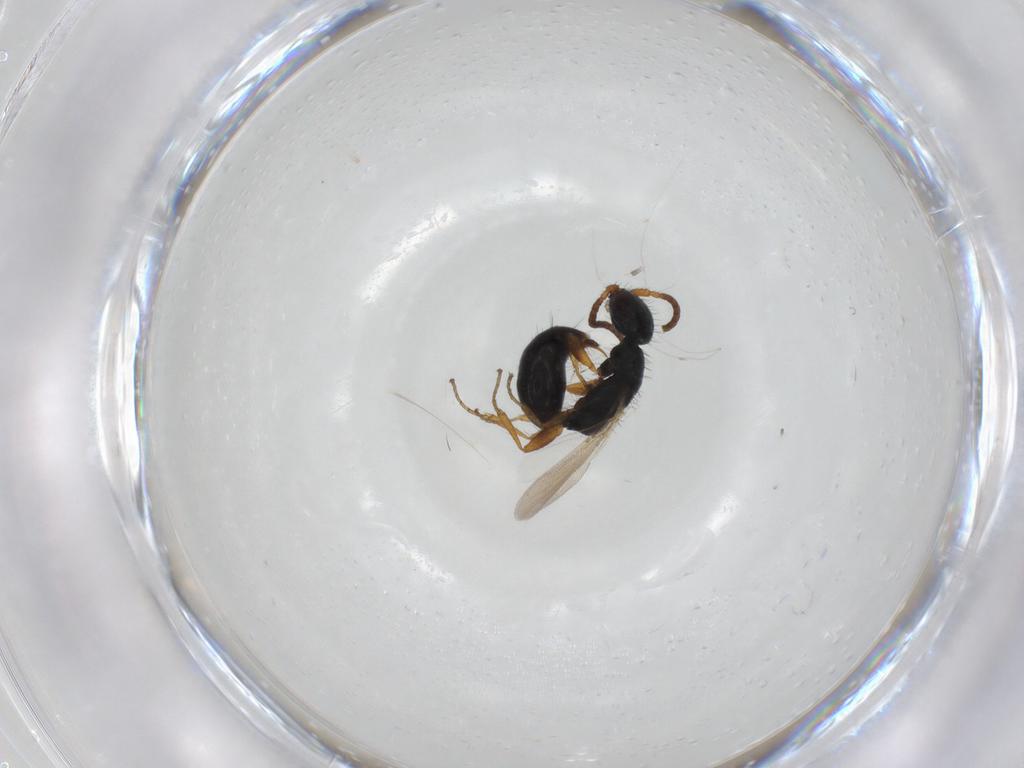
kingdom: Animalia
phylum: Arthropoda
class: Insecta
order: Hymenoptera
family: Bethylidae
